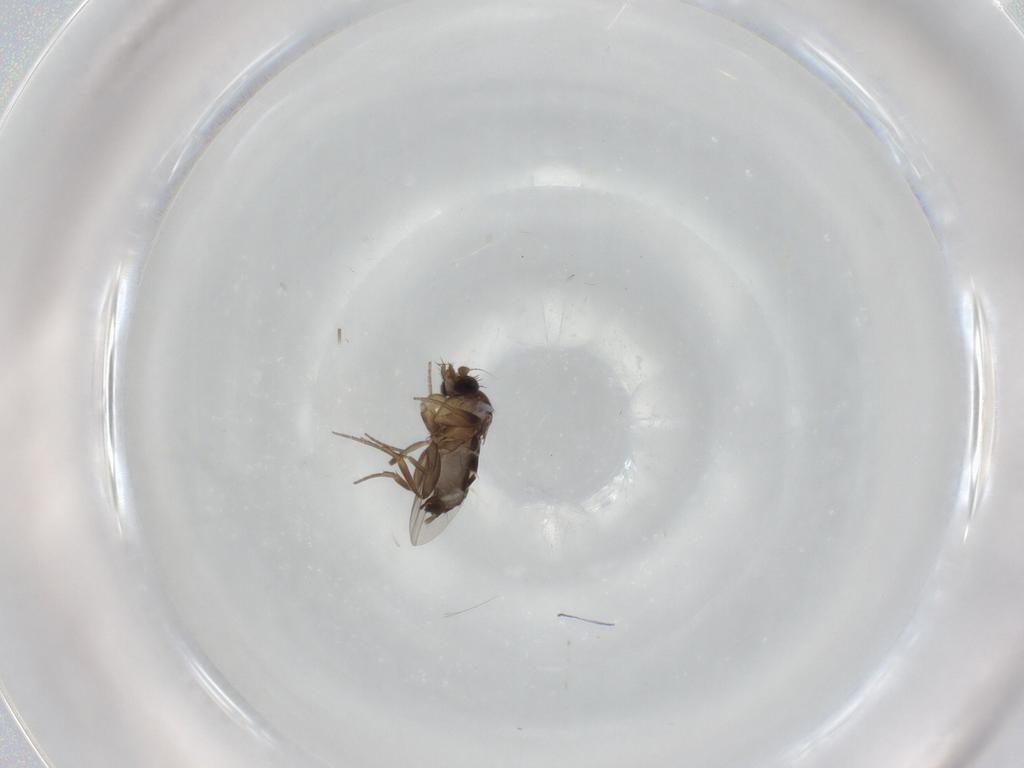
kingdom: Animalia
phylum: Arthropoda
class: Insecta
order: Diptera
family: Phoridae
